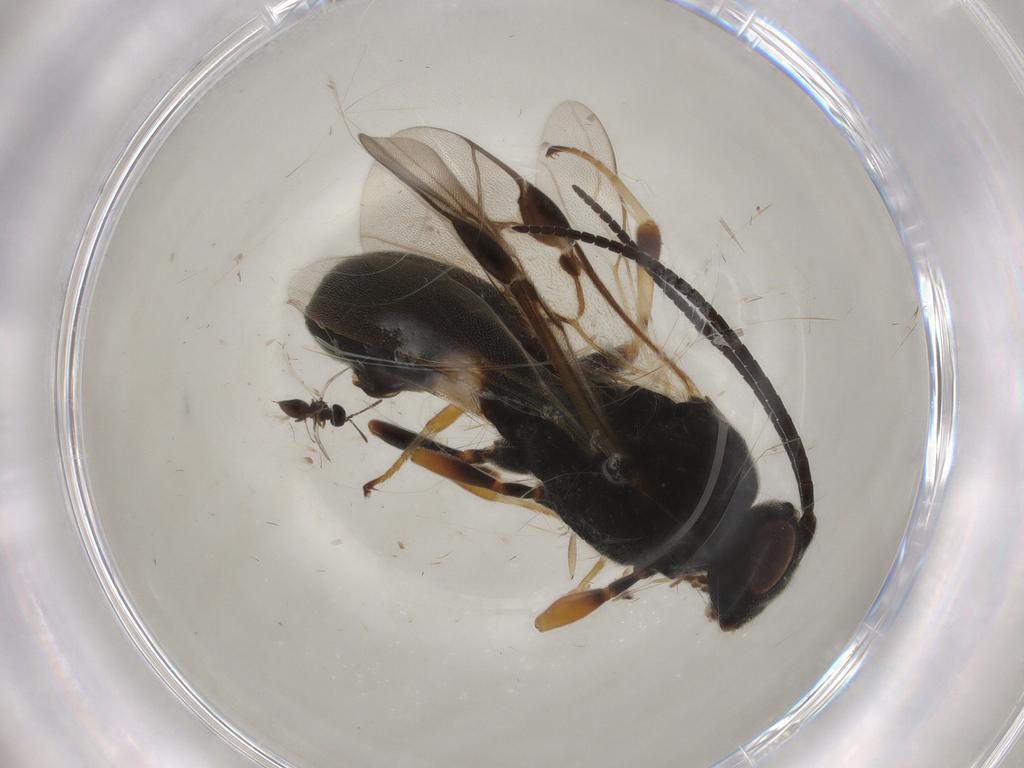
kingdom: Animalia
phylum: Arthropoda
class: Insecta
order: Hymenoptera
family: Braconidae
